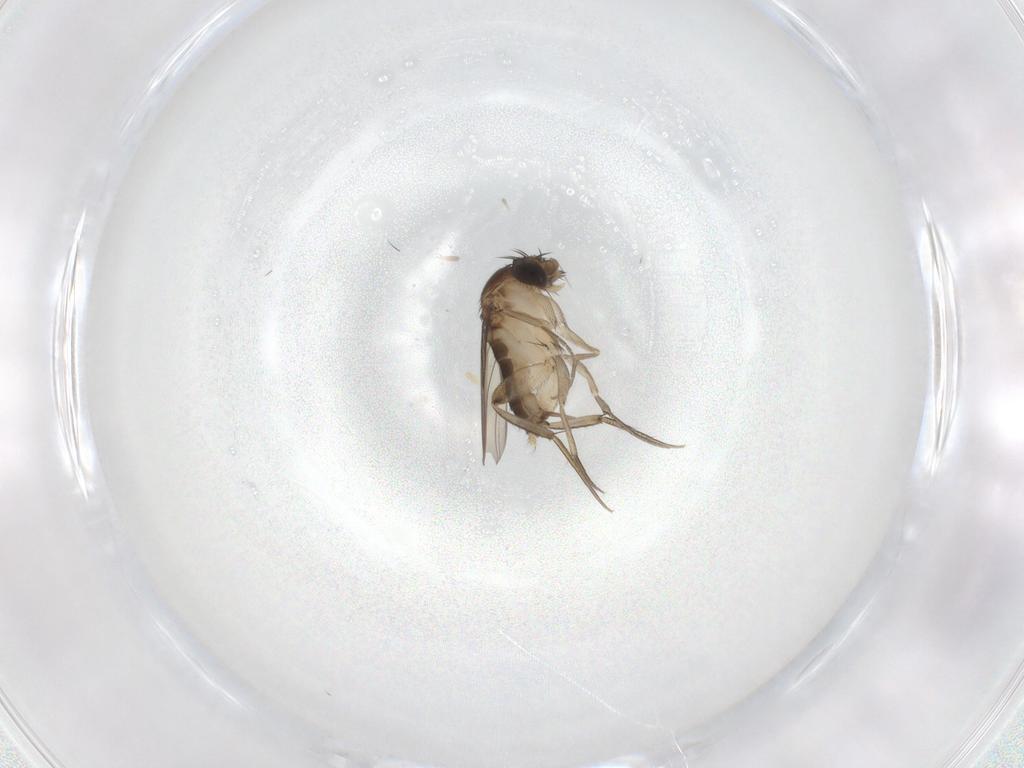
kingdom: Animalia
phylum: Arthropoda
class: Insecta
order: Diptera
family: Phoridae
